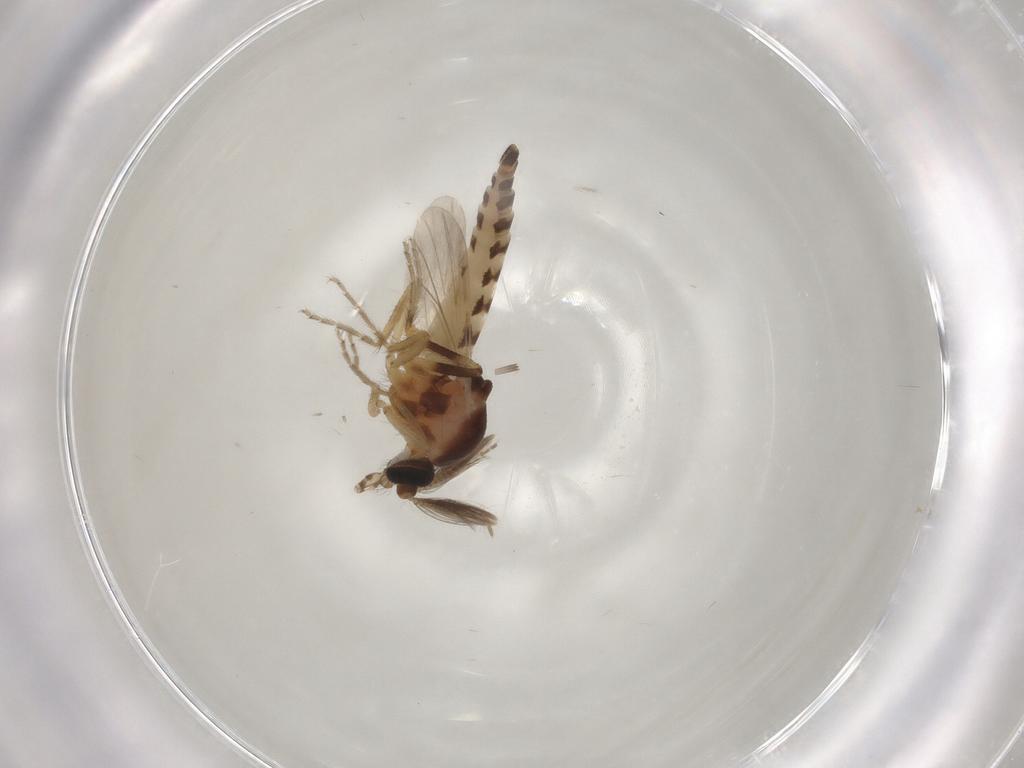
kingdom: Animalia
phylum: Arthropoda
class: Insecta
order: Diptera
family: Ceratopogonidae
